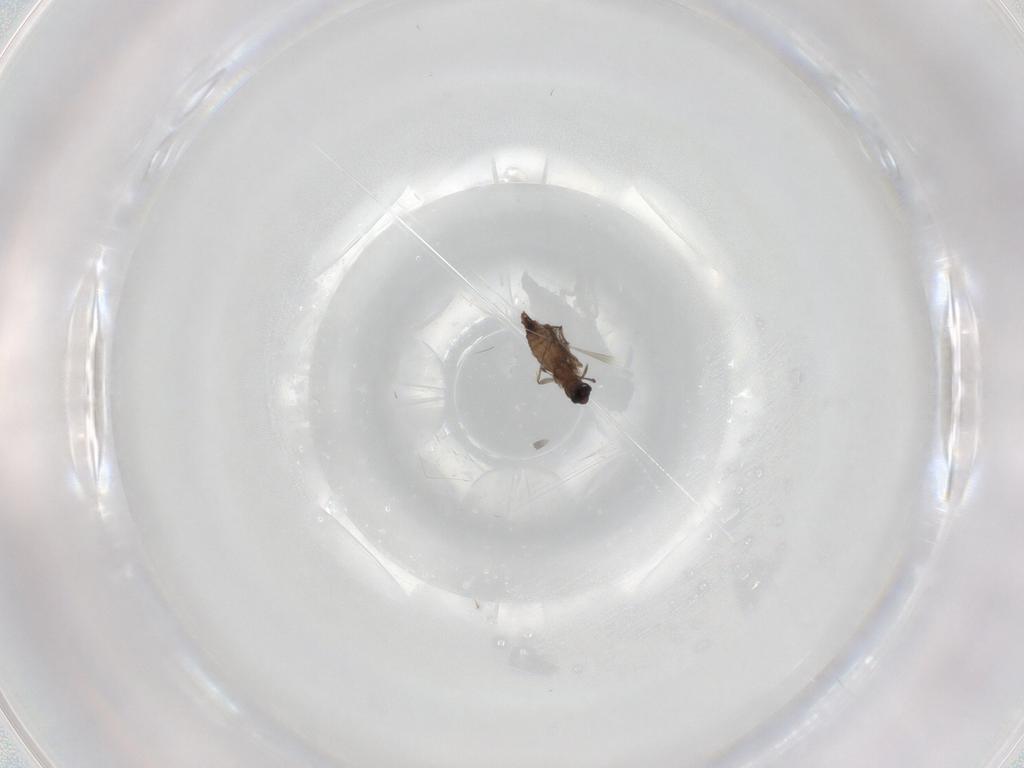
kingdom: Animalia
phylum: Arthropoda
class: Insecta
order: Diptera
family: Chironomidae
